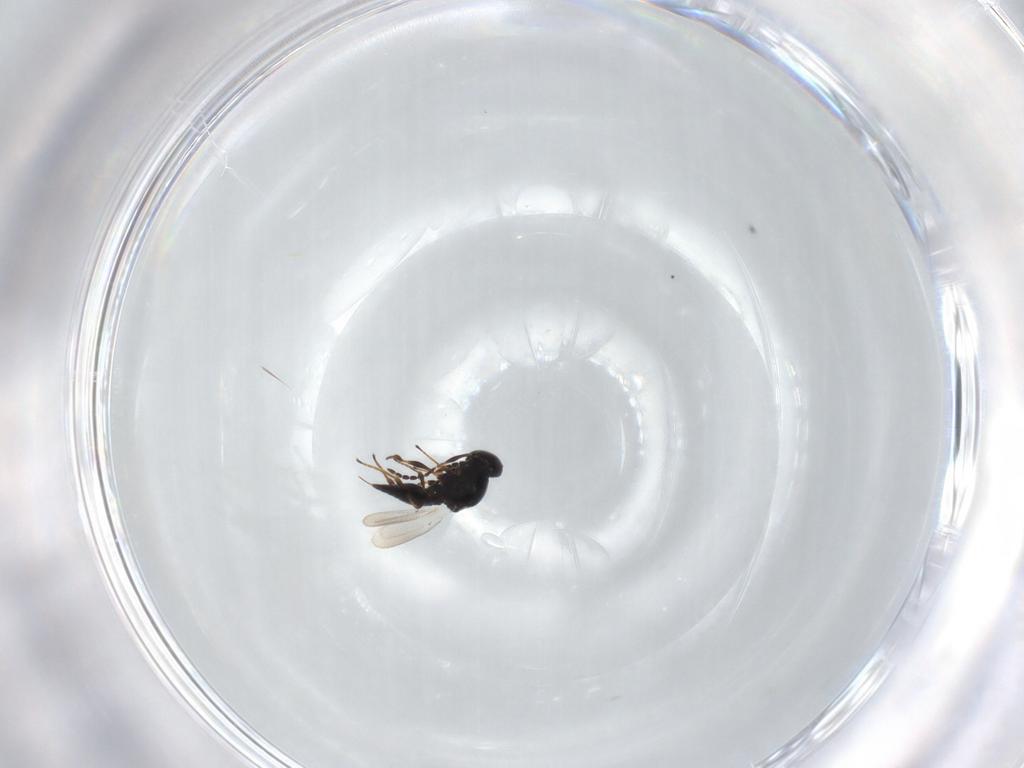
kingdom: Animalia
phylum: Arthropoda
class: Insecta
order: Hymenoptera
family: Platygastridae
